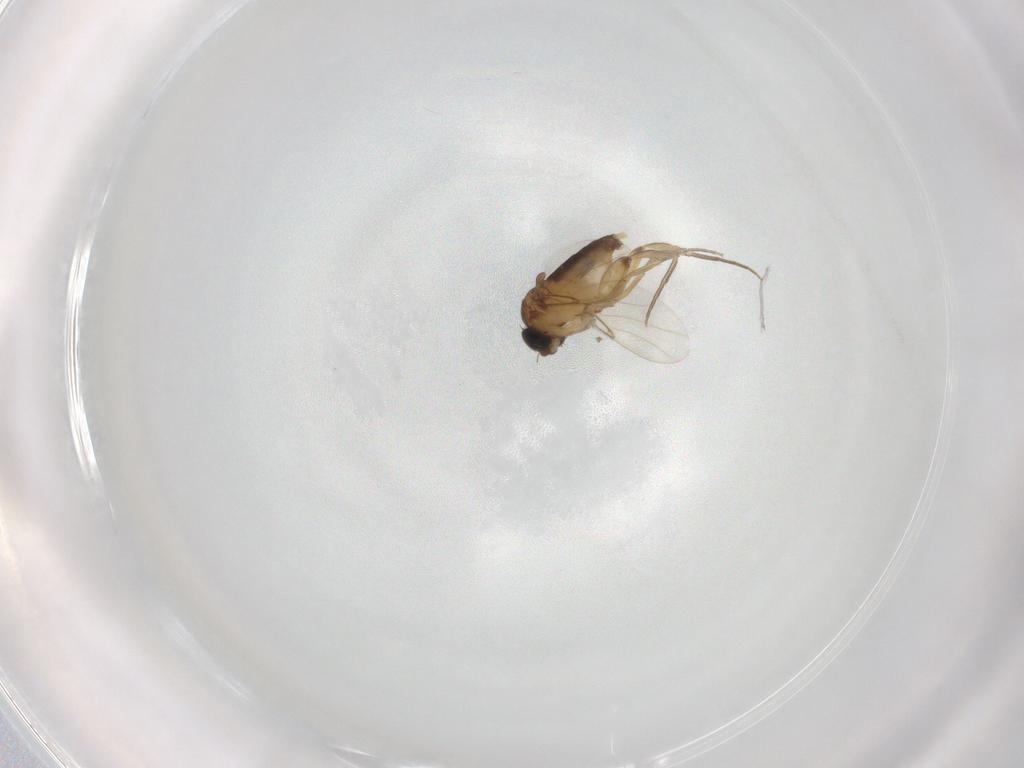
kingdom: Animalia
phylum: Arthropoda
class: Insecta
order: Diptera
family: Phoridae
